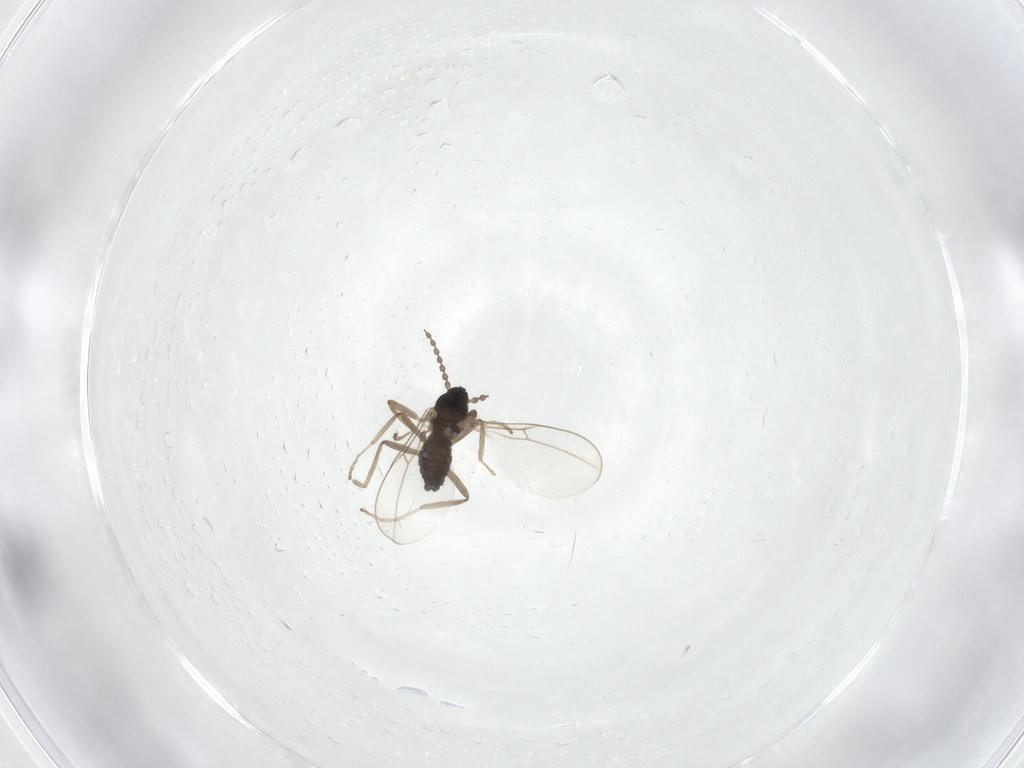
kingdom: Animalia
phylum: Arthropoda
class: Insecta
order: Diptera
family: Cecidomyiidae
